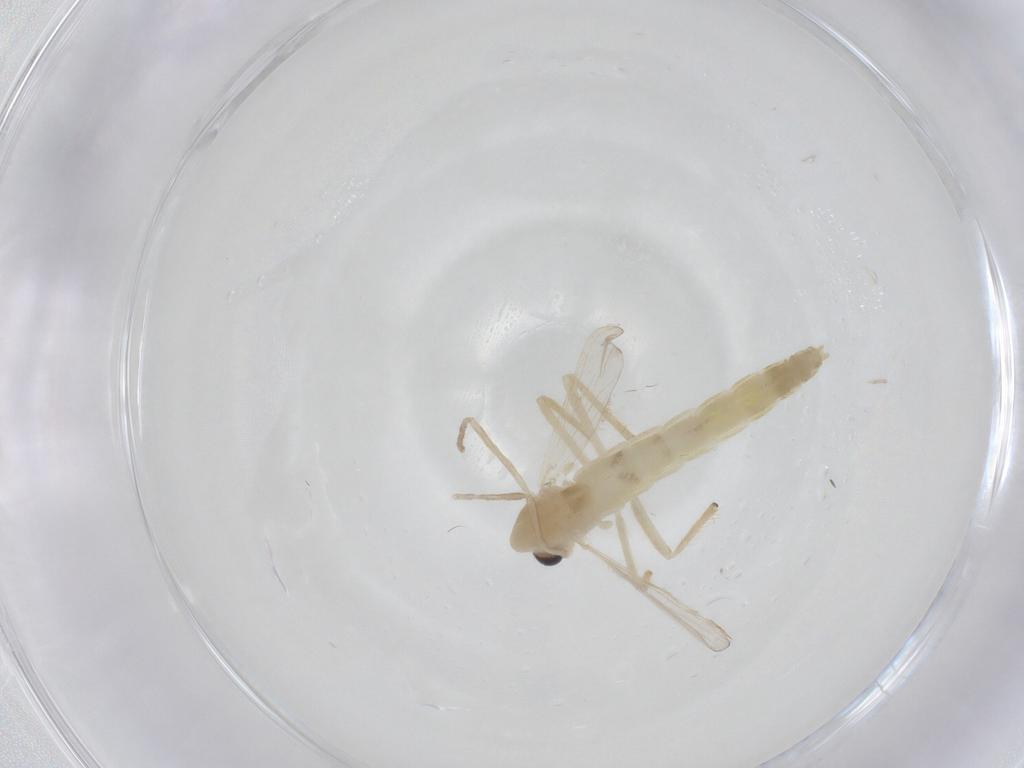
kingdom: Animalia
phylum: Arthropoda
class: Insecta
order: Diptera
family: Chironomidae
